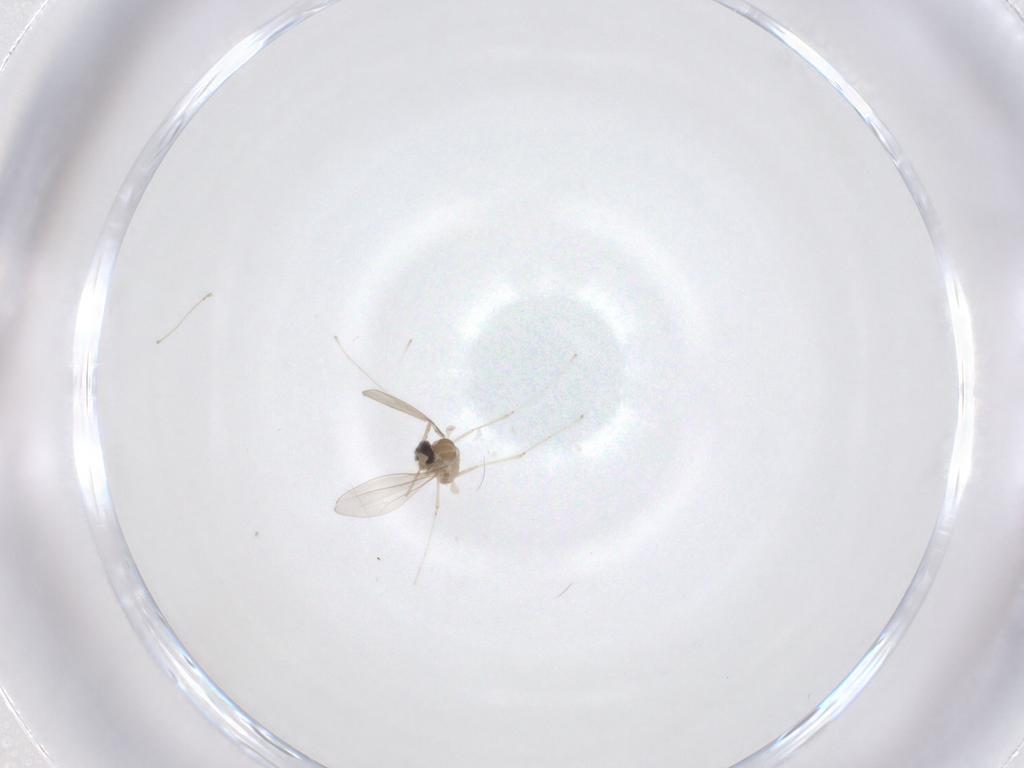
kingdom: Animalia
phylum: Arthropoda
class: Insecta
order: Diptera
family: Cecidomyiidae
